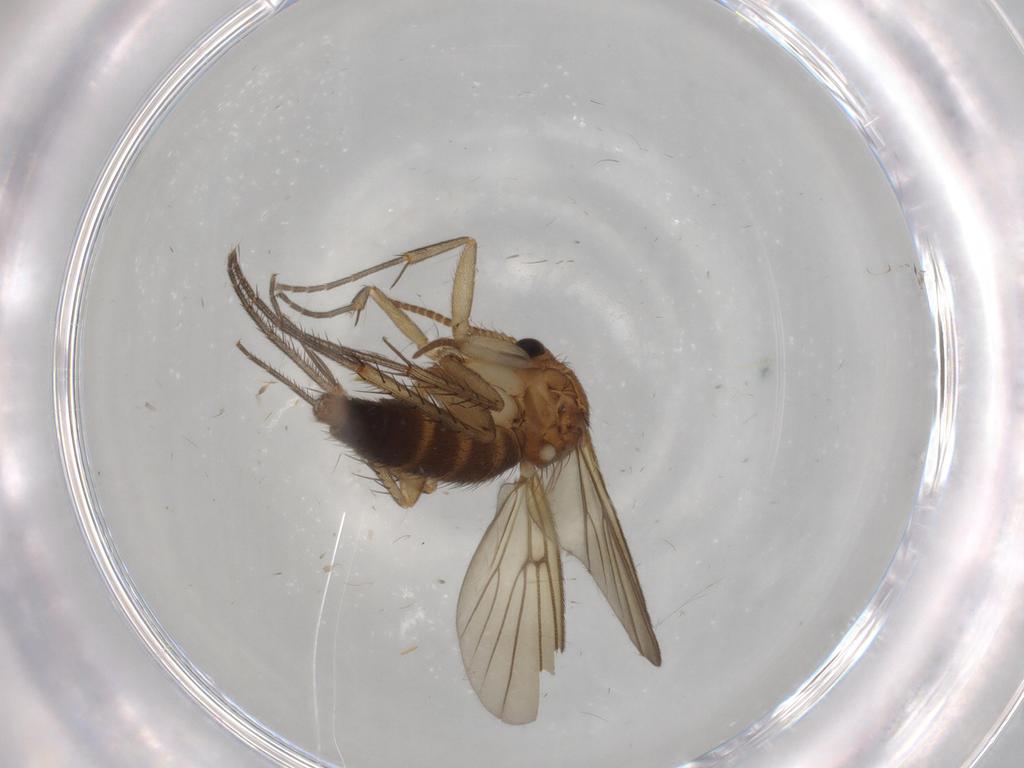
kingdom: Animalia
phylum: Arthropoda
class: Insecta
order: Diptera
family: Mycetophilidae
